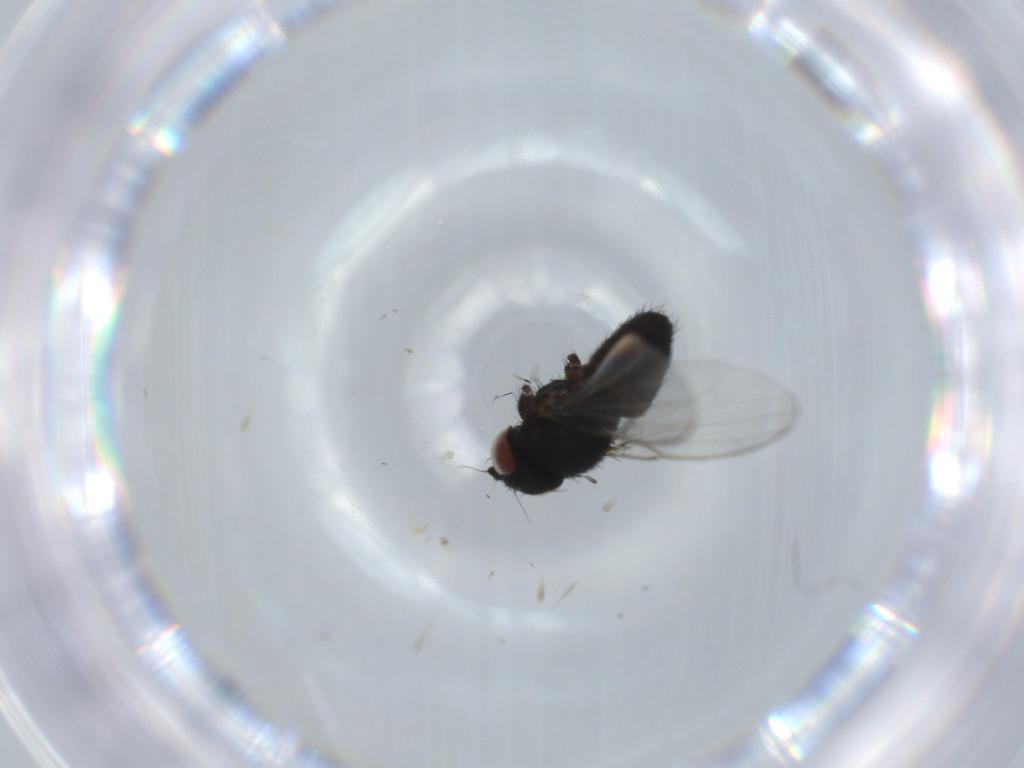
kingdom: Animalia
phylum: Arthropoda
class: Insecta
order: Diptera
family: Milichiidae
